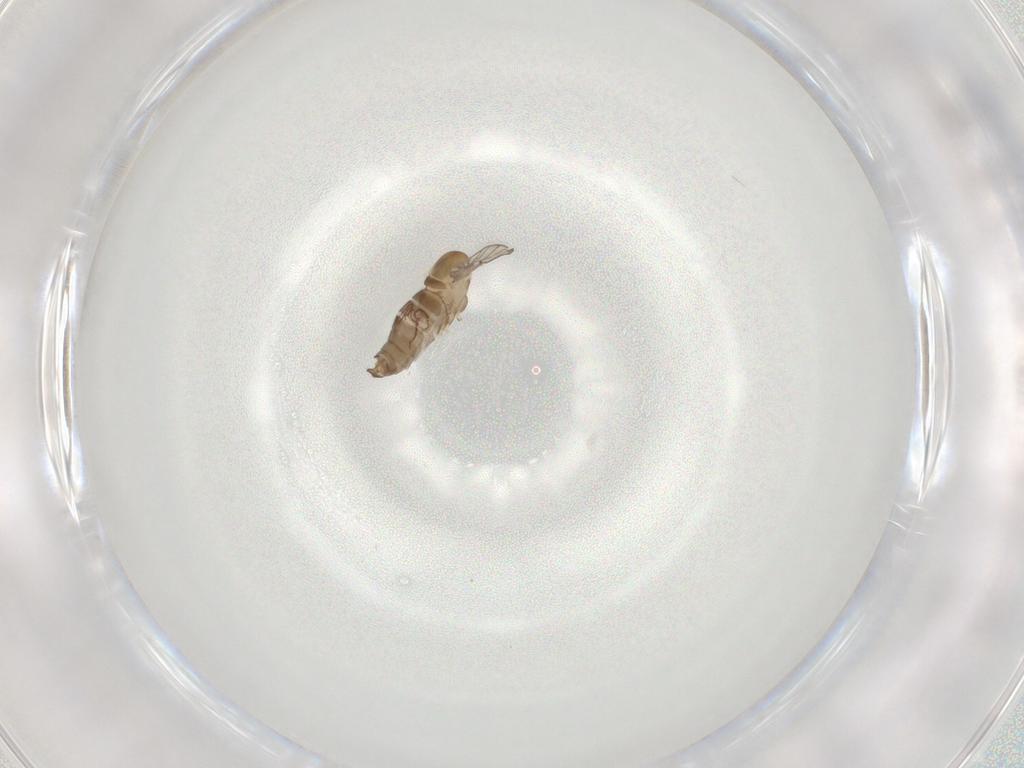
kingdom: Animalia
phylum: Arthropoda
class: Insecta
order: Diptera
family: Dolichopodidae
